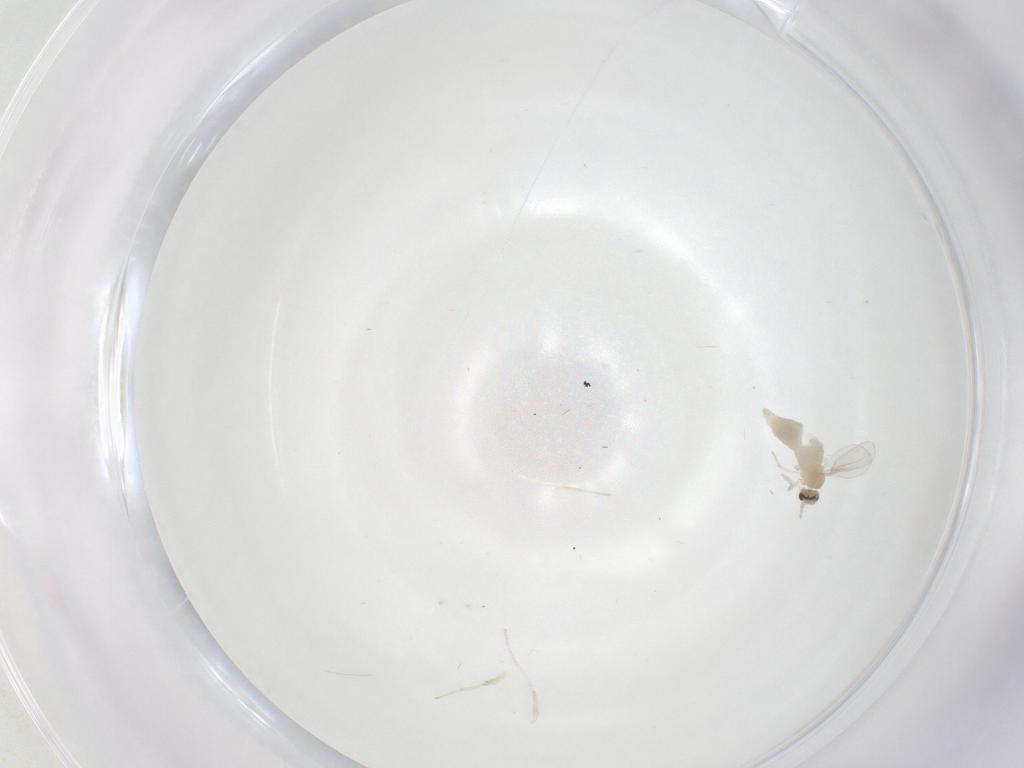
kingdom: Animalia
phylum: Arthropoda
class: Insecta
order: Diptera
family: Cecidomyiidae
